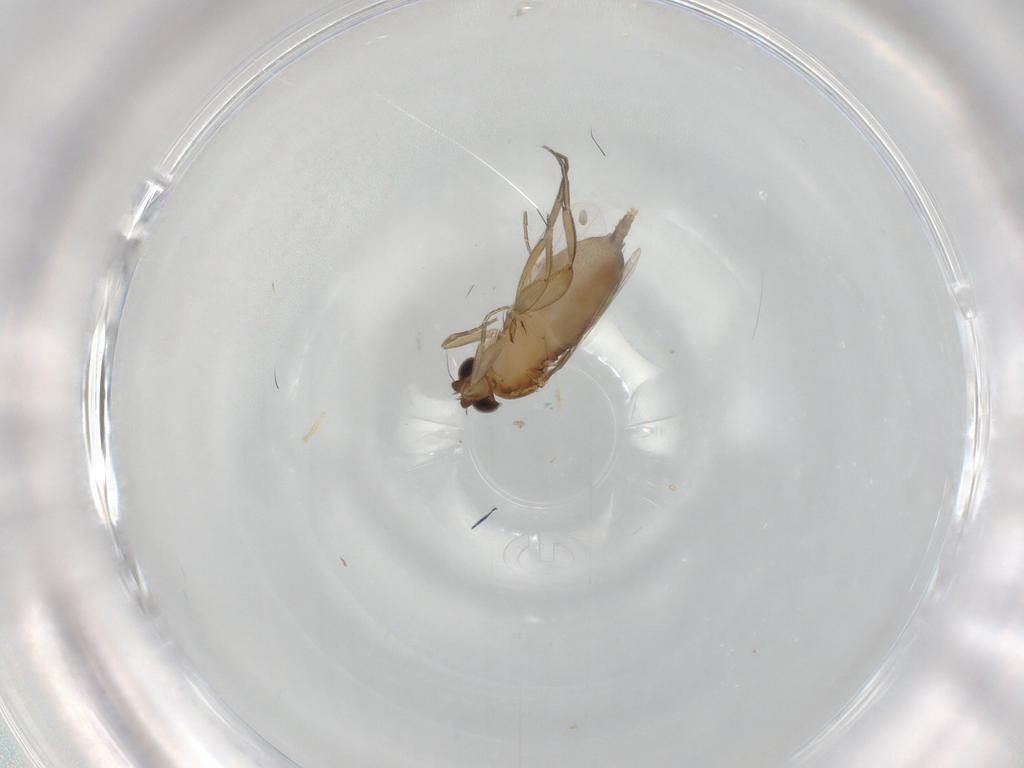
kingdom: Animalia
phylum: Arthropoda
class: Insecta
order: Diptera
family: Phoridae
